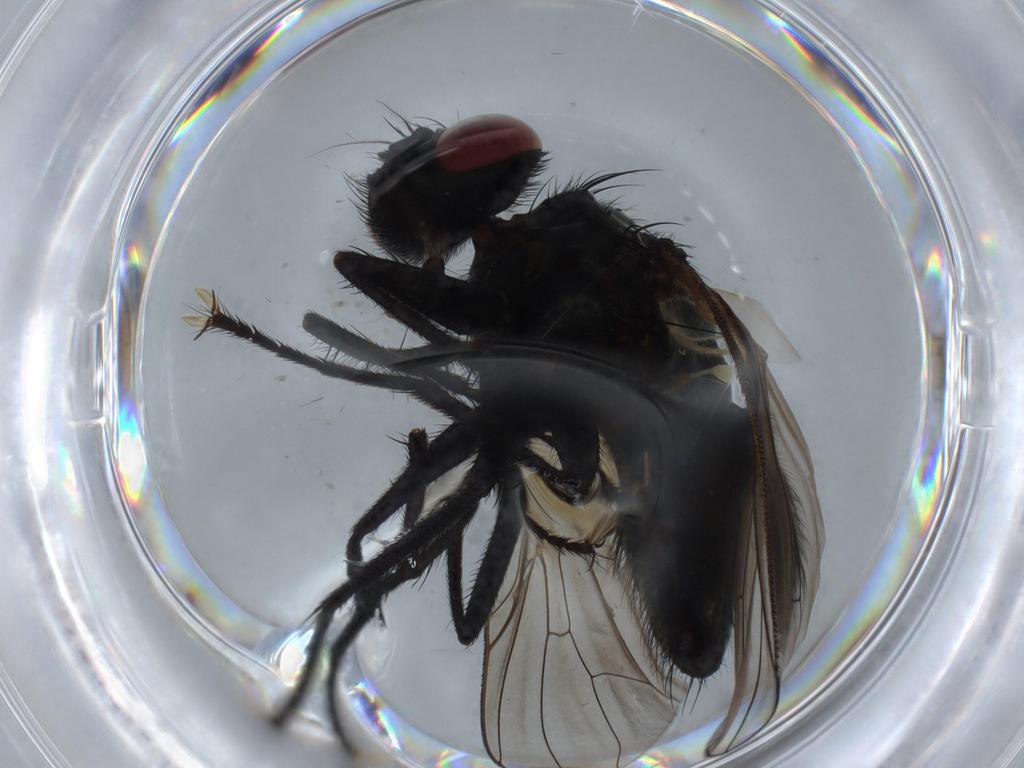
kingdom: Animalia
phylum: Arthropoda
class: Insecta
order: Diptera
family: Muscidae
